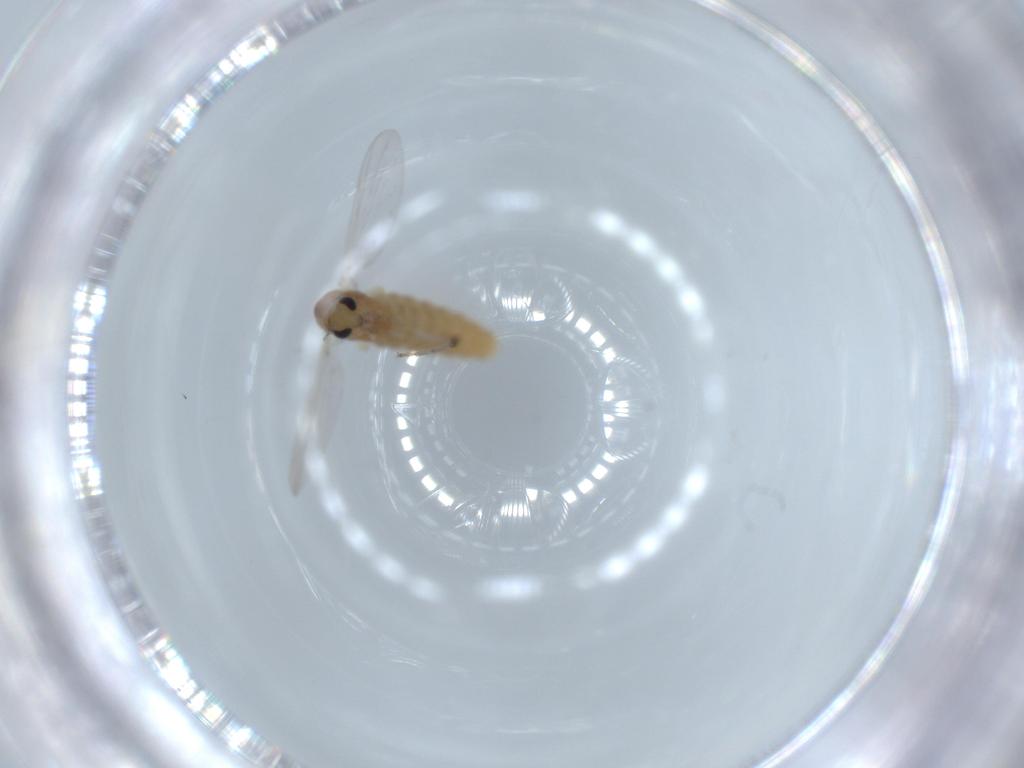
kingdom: Animalia
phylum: Arthropoda
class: Insecta
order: Diptera
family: Chironomidae
